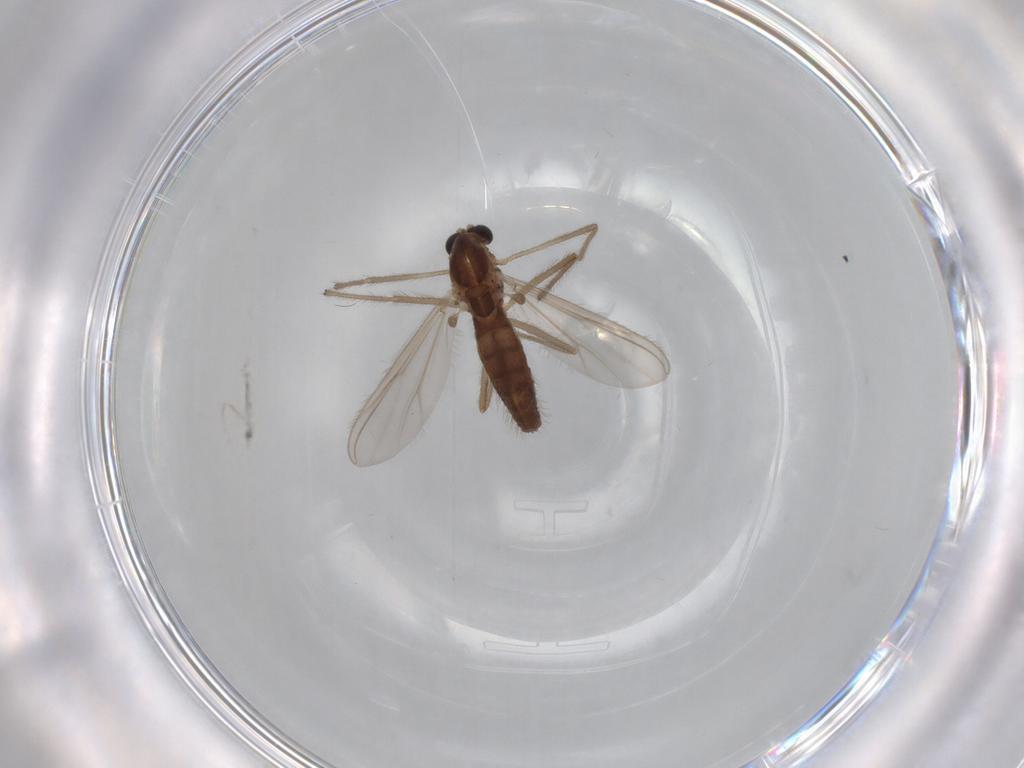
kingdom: Animalia
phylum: Arthropoda
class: Insecta
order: Diptera
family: Chironomidae
